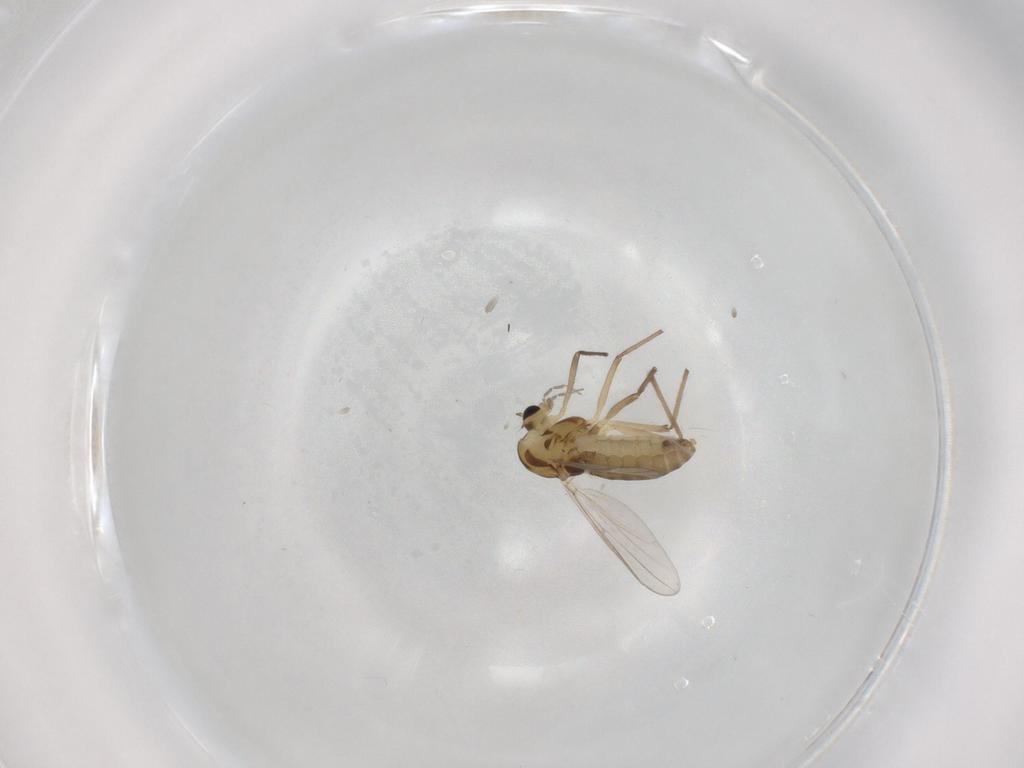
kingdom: Animalia
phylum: Arthropoda
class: Insecta
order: Diptera
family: Chironomidae
